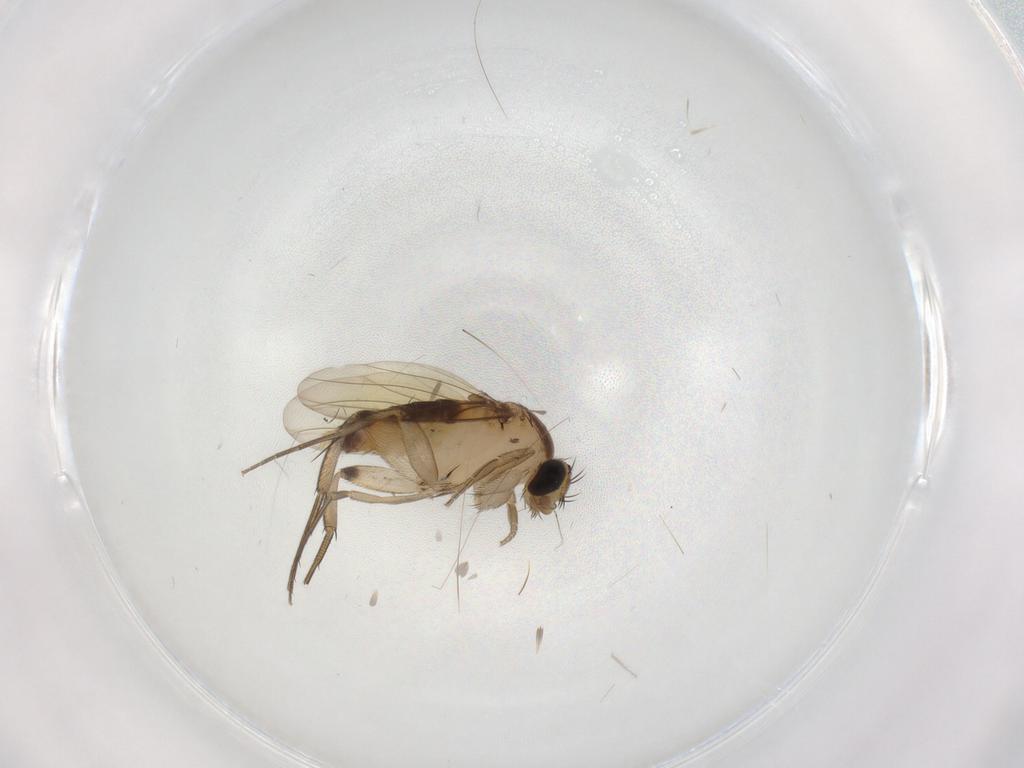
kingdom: Animalia
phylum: Arthropoda
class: Insecta
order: Diptera
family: Phoridae
